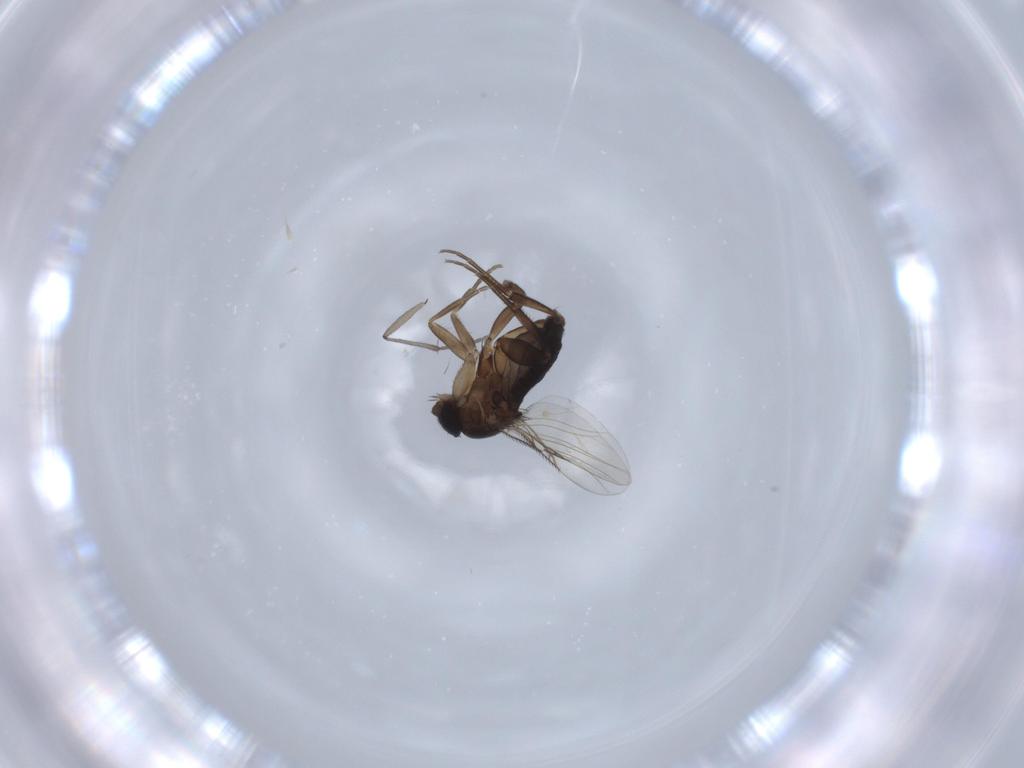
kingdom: Animalia
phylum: Arthropoda
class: Insecta
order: Diptera
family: Phoridae
